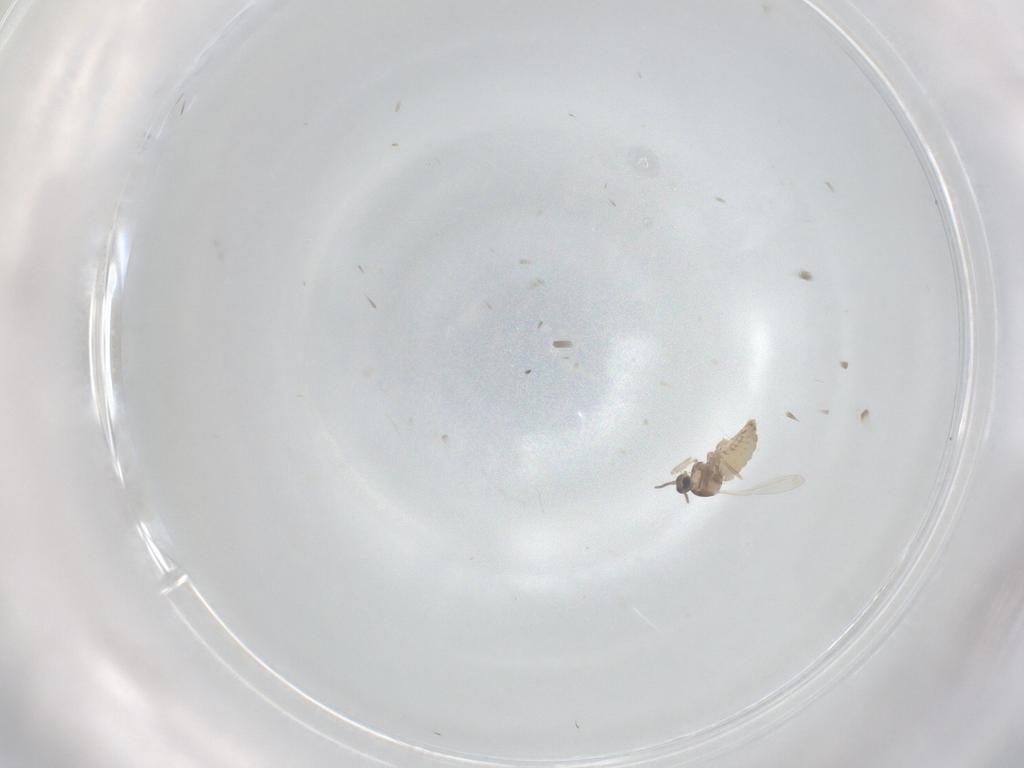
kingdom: Animalia
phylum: Arthropoda
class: Insecta
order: Diptera
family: Cecidomyiidae
